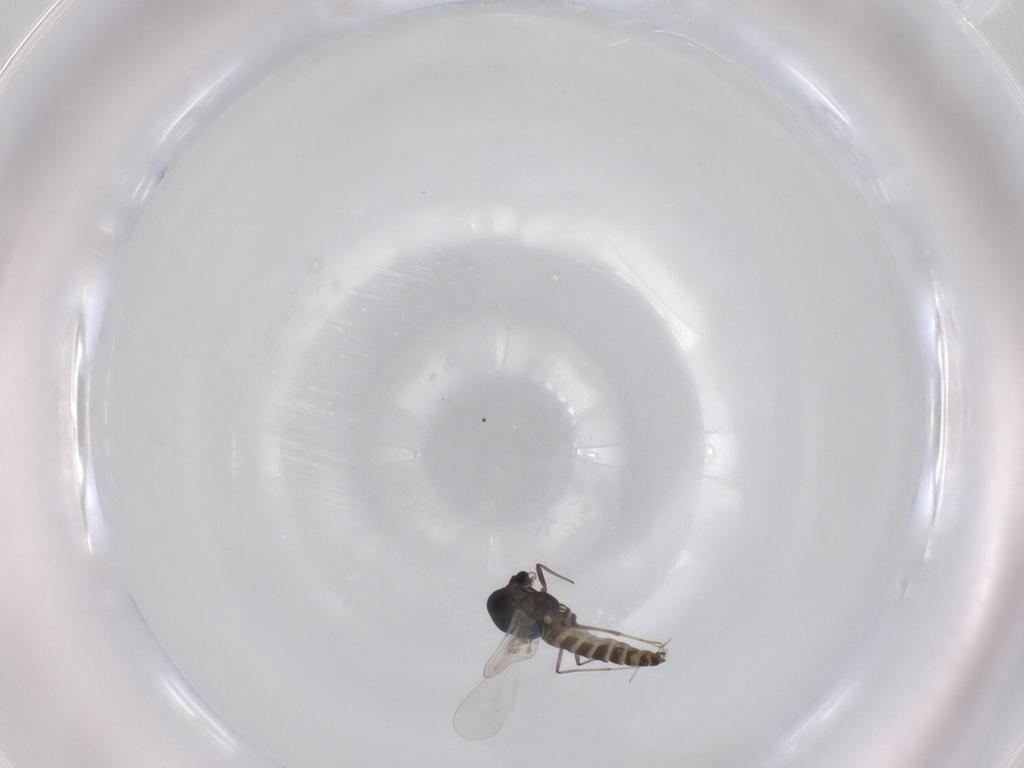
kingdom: Animalia
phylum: Arthropoda
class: Insecta
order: Diptera
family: Chironomidae
